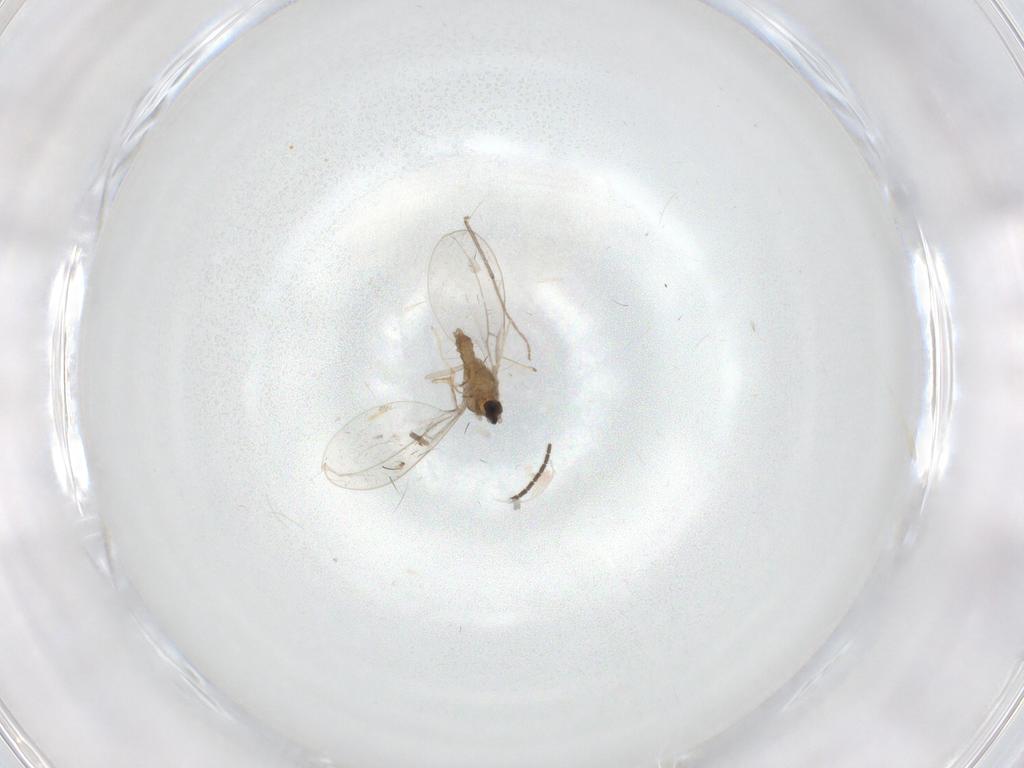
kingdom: Animalia
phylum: Arthropoda
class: Insecta
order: Diptera
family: Cecidomyiidae
